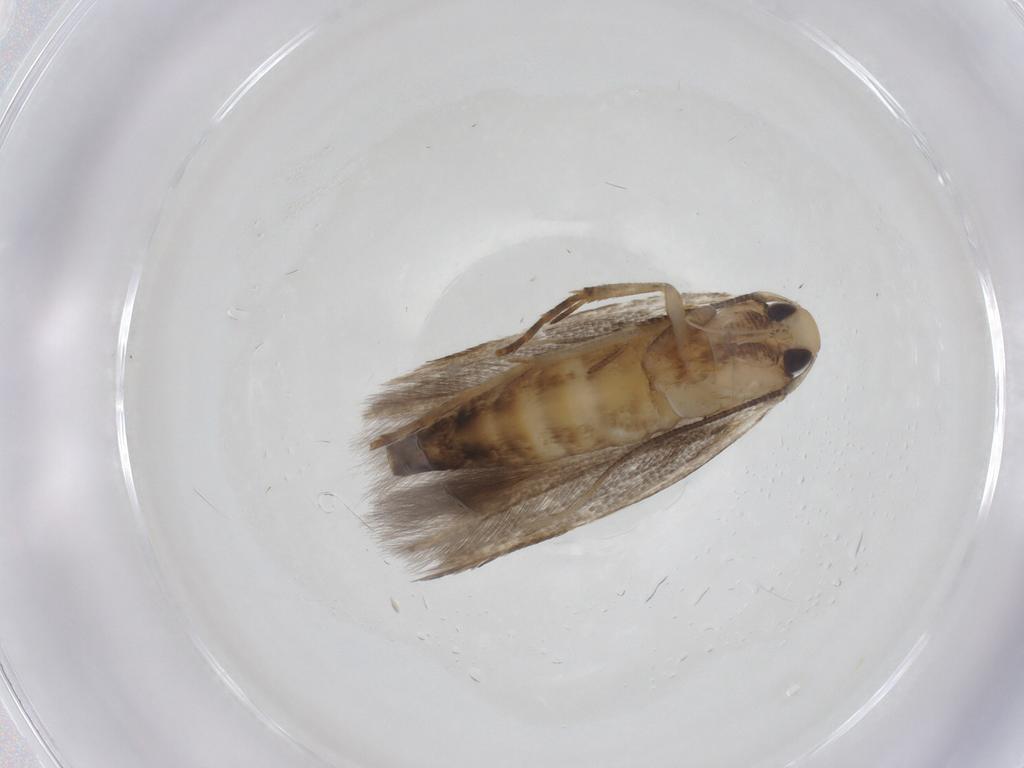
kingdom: Animalia
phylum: Arthropoda
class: Insecta
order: Lepidoptera
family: Cosmopterigidae
